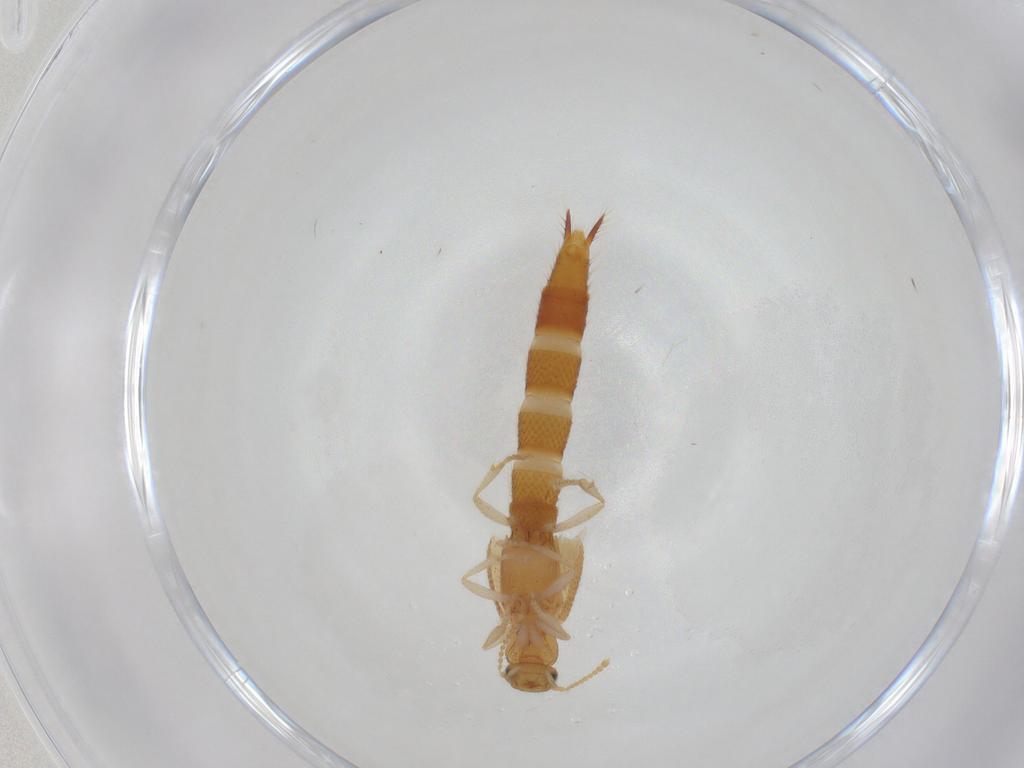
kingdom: Animalia
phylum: Arthropoda
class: Insecta
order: Coleoptera
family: Staphylinidae
